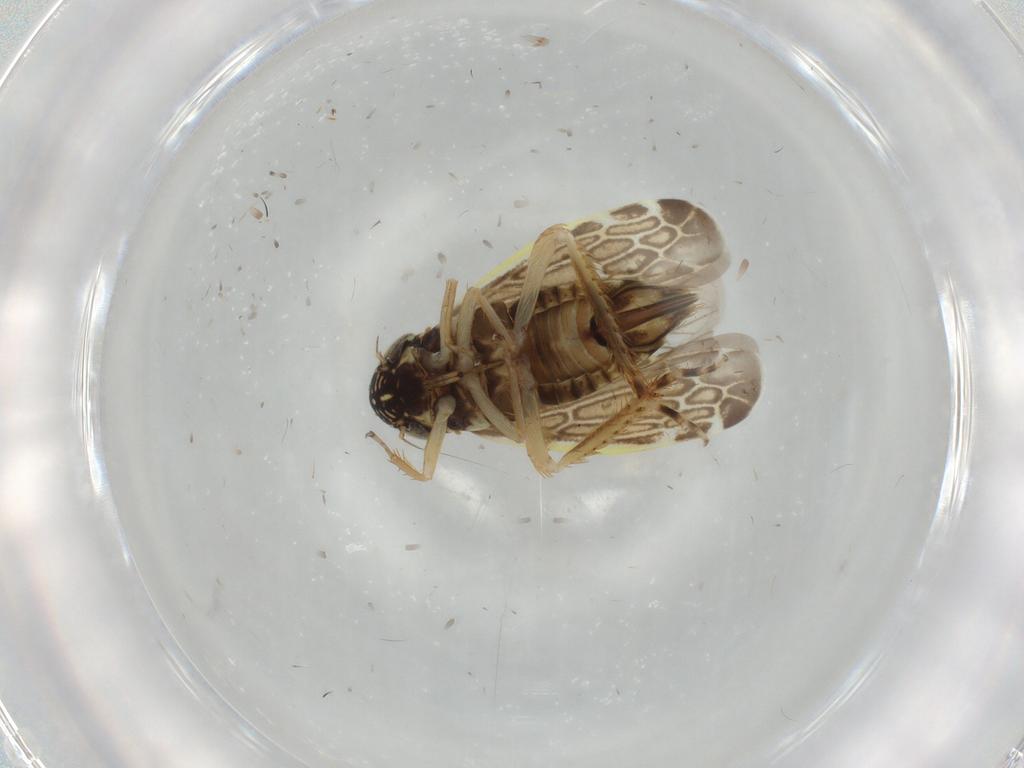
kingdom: Animalia
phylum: Arthropoda
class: Insecta
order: Hemiptera
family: Cicadellidae
